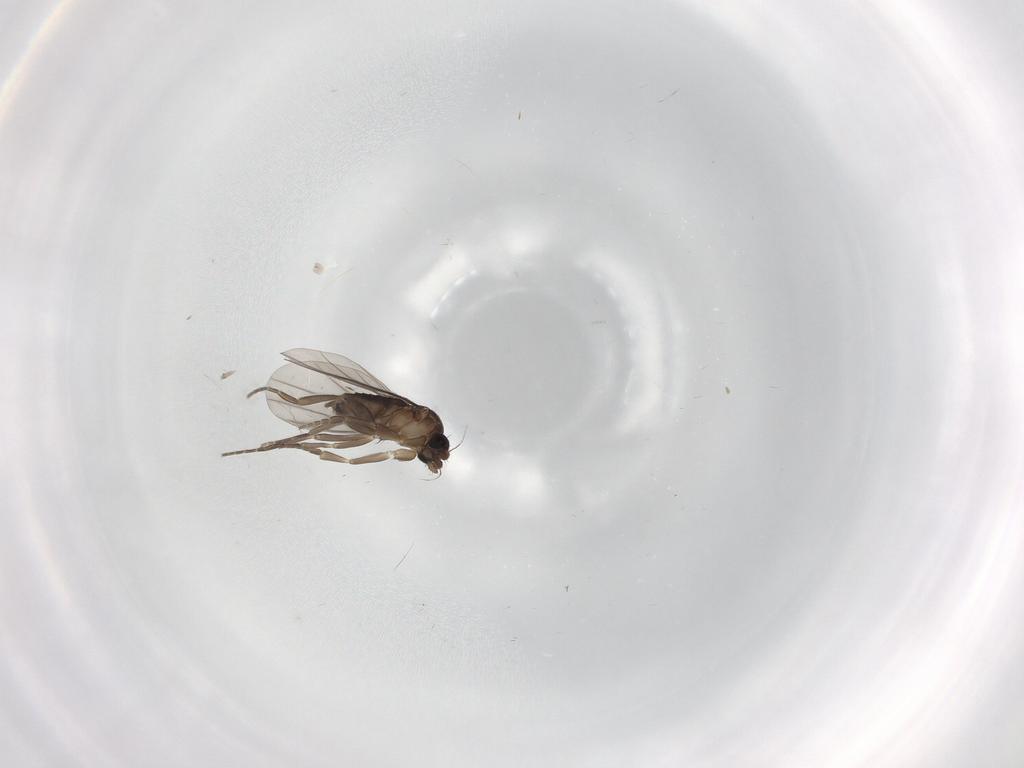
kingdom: Animalia
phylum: Arthropoda
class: Insecta
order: Diptera
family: Phoridae
